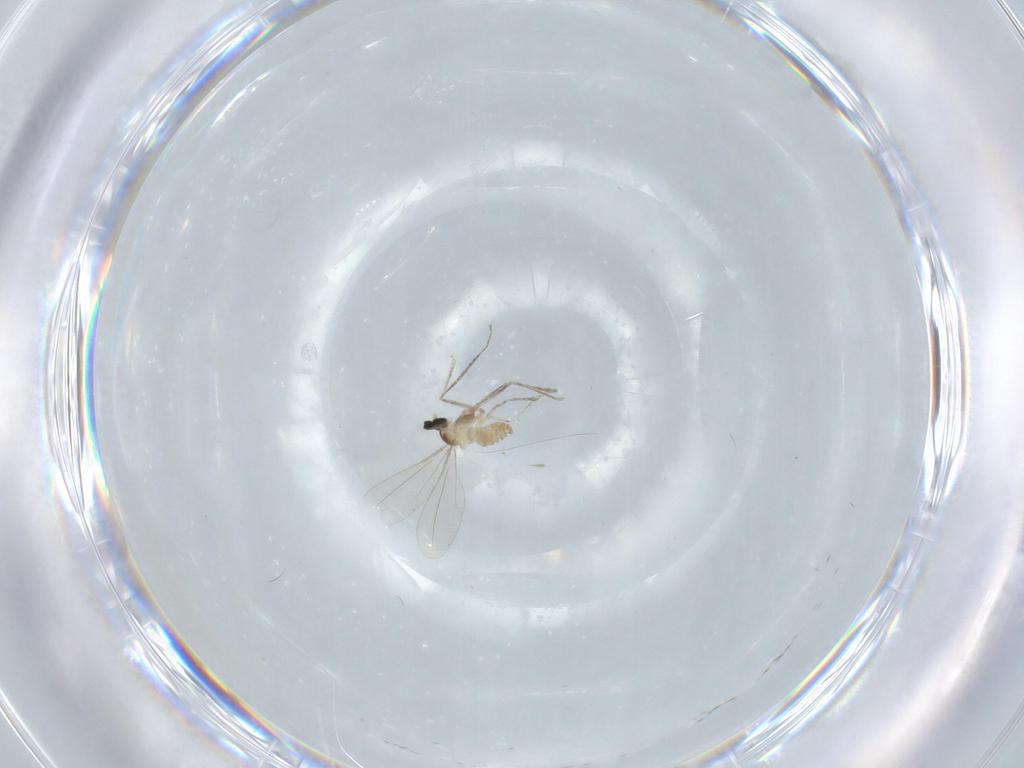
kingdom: Animalia
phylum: Arthropoda
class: Insecta
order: Diptera
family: Cecidomyiidae
